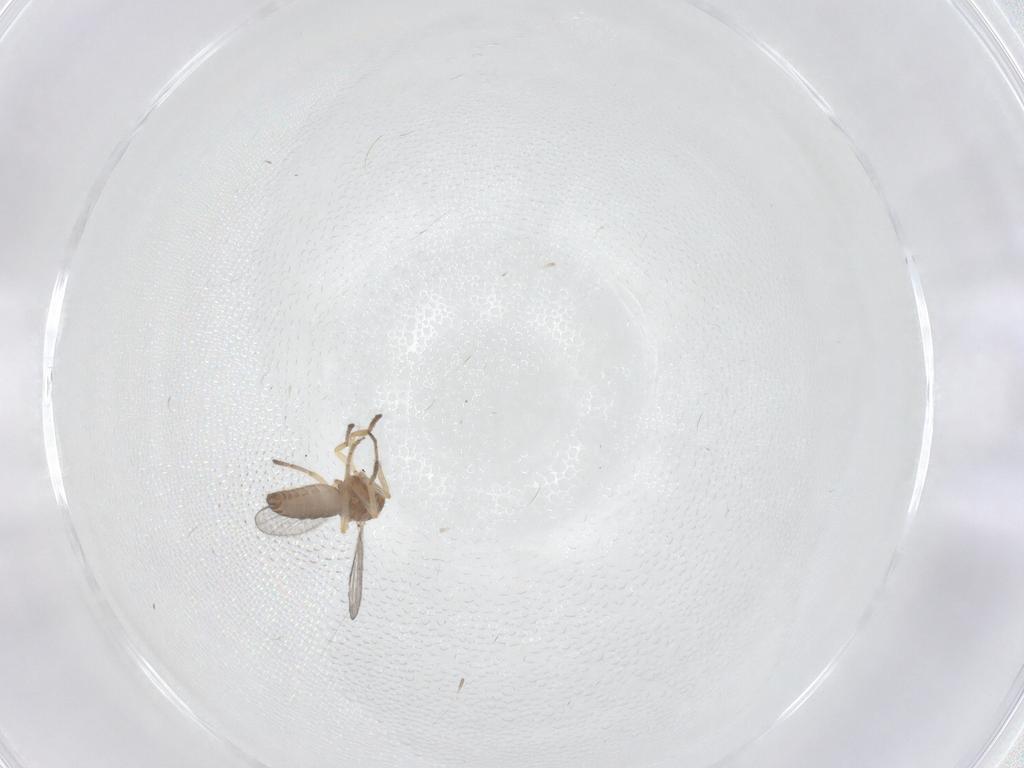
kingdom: Animalia
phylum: Arthropoda
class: Insecta
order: Diptera
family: Ceratopogonidae
